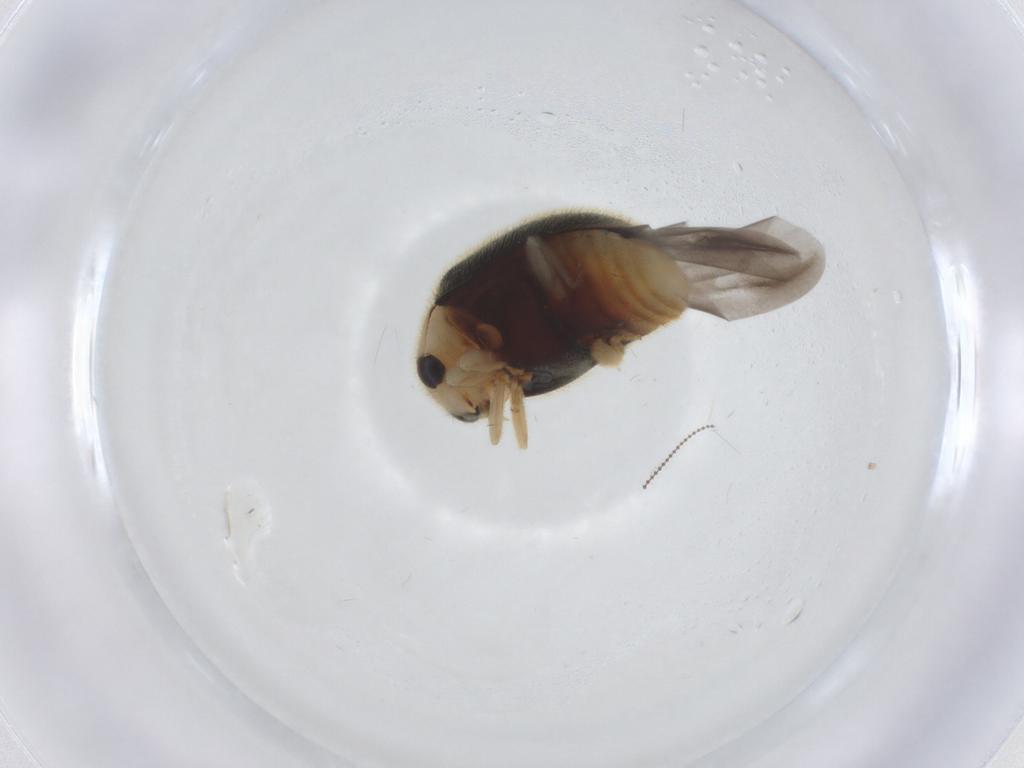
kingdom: Animalia
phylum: Arthropoda
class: Insecta
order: Coleoptera
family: Coccinellidae
